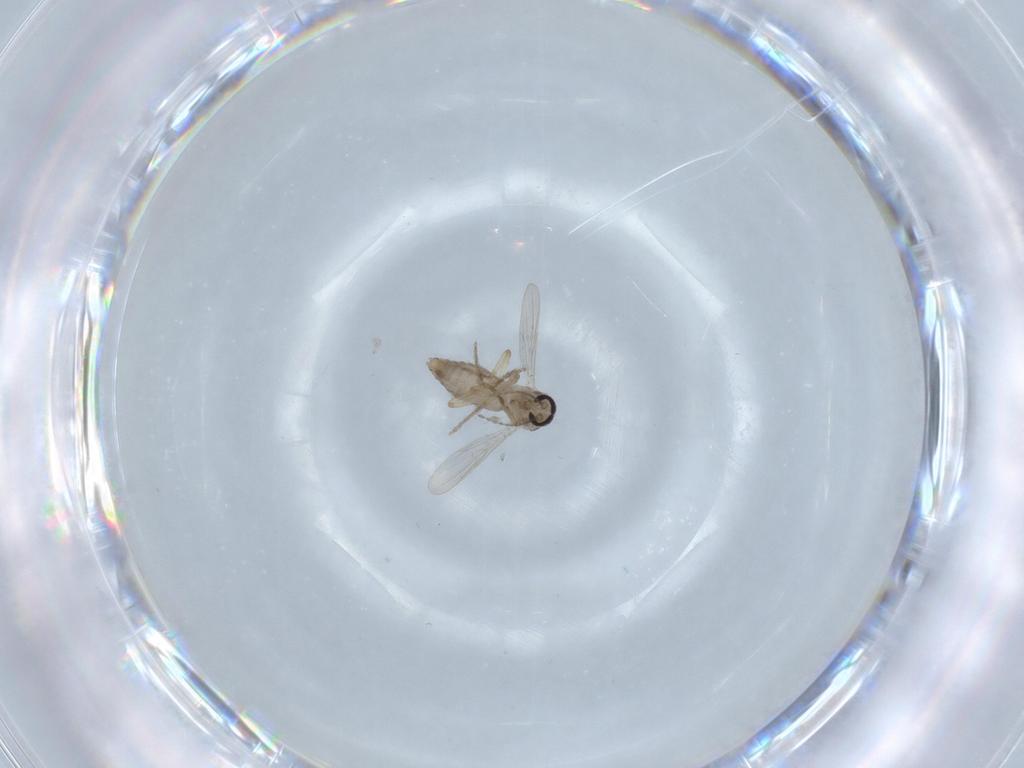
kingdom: Animalia
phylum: Arthropoda
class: Insecta
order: Diptera
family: Ceratopogonidae
